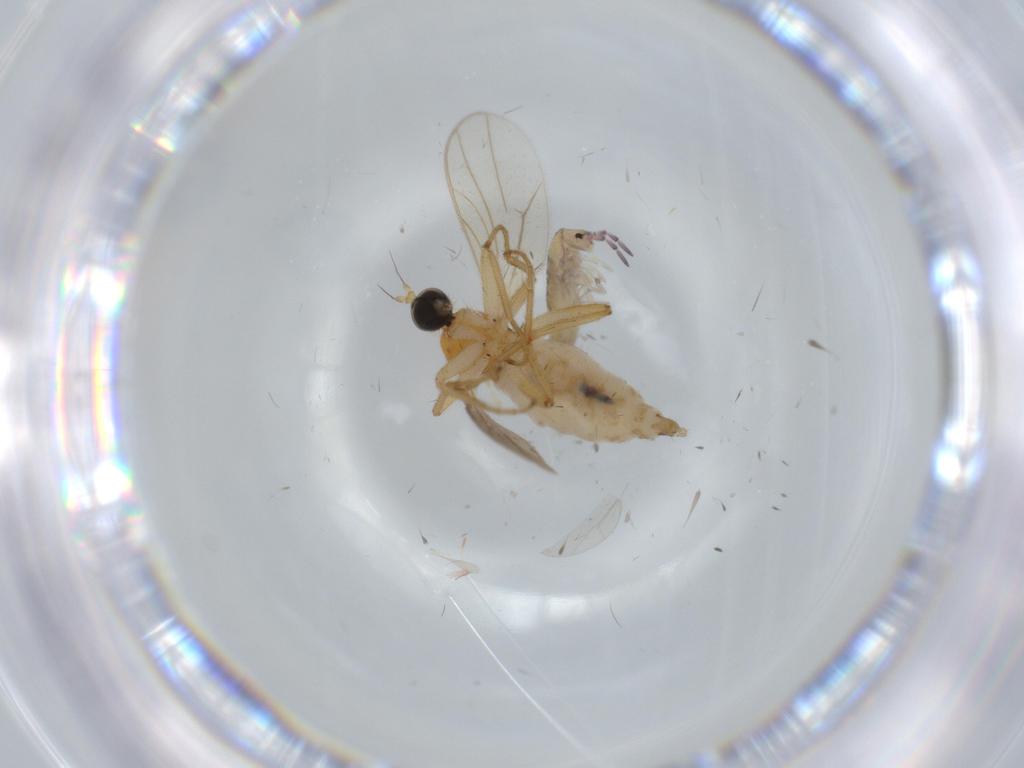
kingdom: Animalia
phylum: Arthropoda
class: Insecta
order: Diptera
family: Hybotidae
